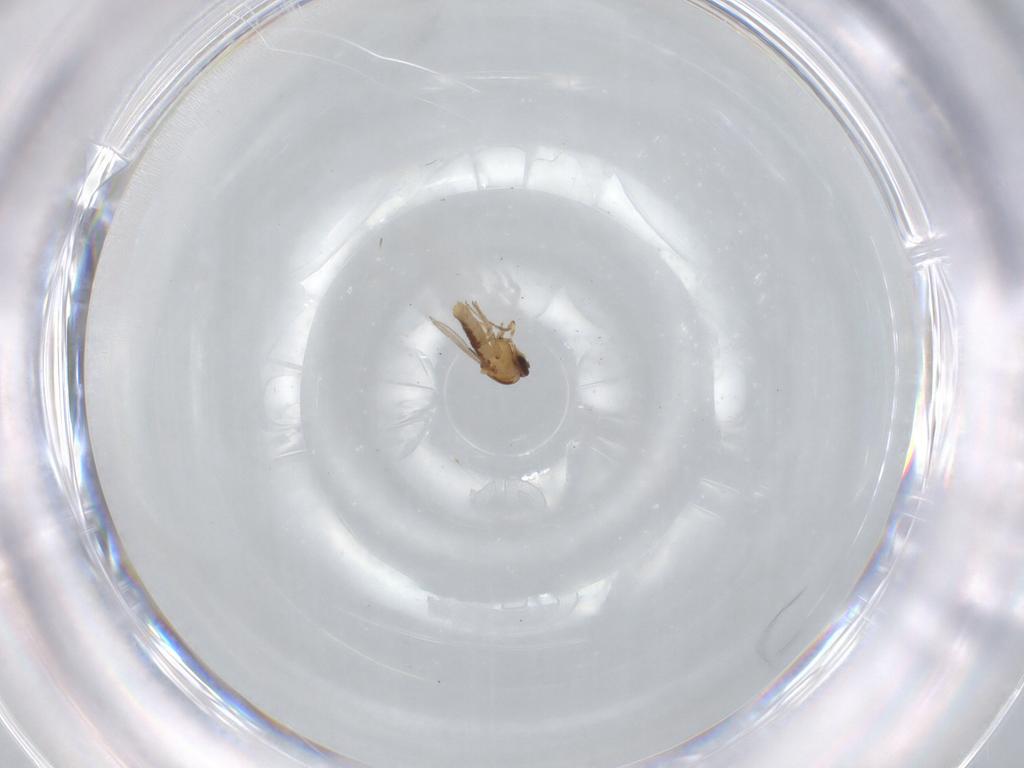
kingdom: Animalia
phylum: Arthropoda
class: Insecta
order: Diptera
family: Ceratopogonidae
